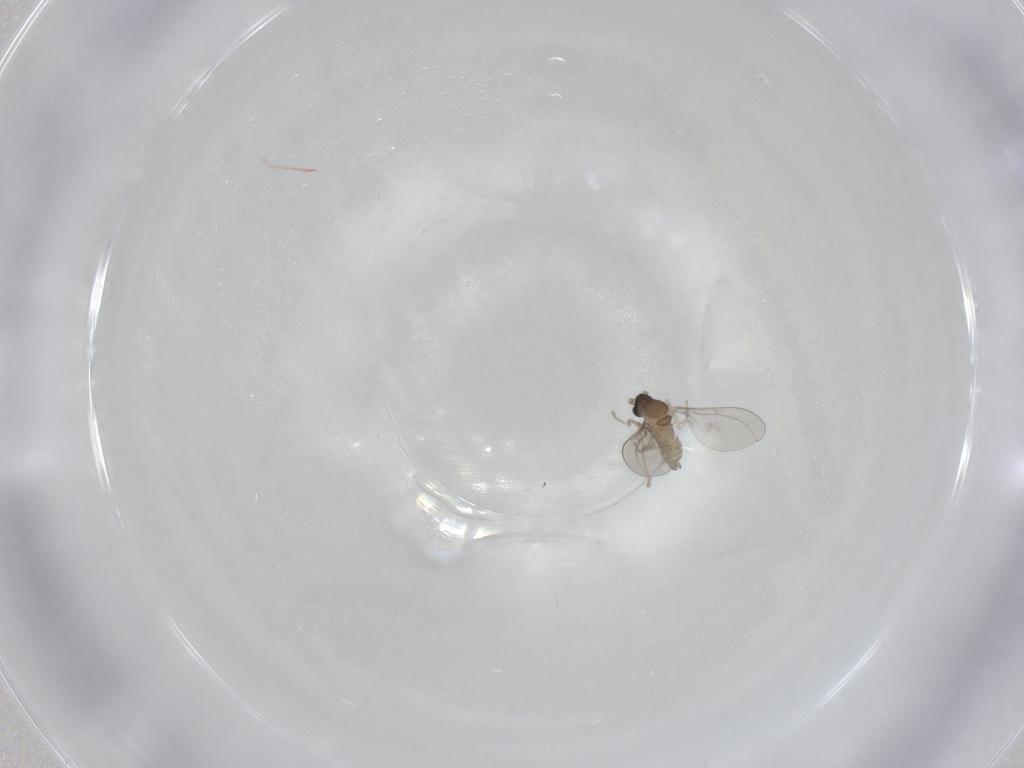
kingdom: Animalia
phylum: Arthropoda
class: Insecta
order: Diptera
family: Cecidomyiidae
